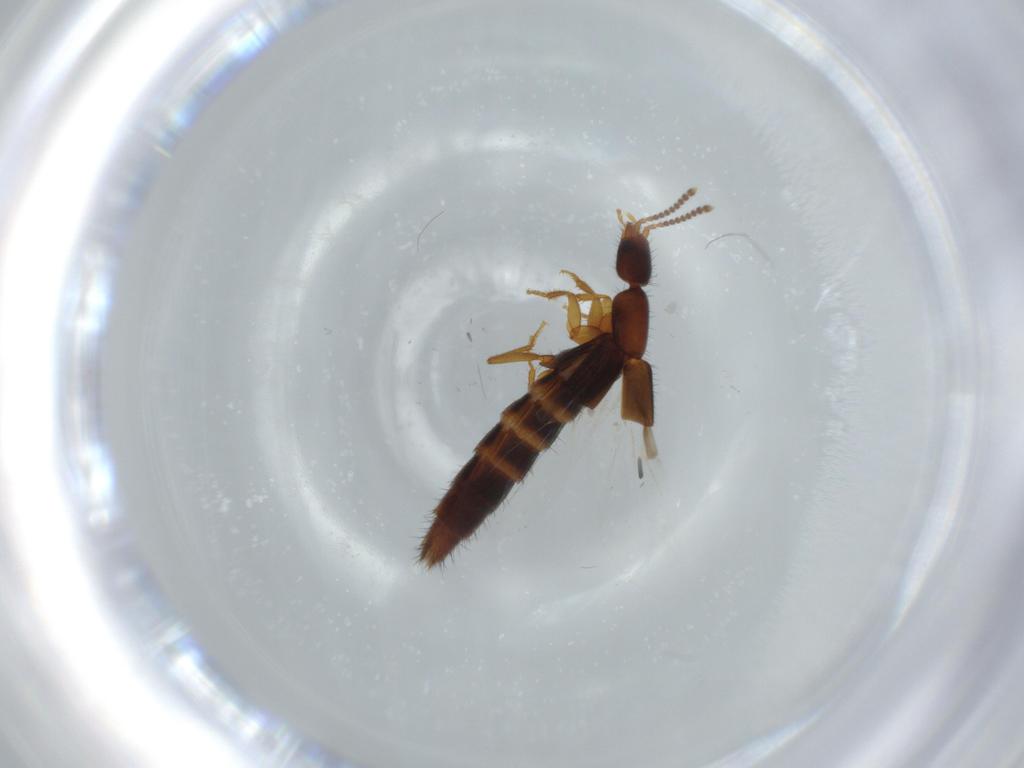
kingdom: Animalia
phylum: Arthropoda
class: Insecta
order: Coleoptera
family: Staphylinidae
